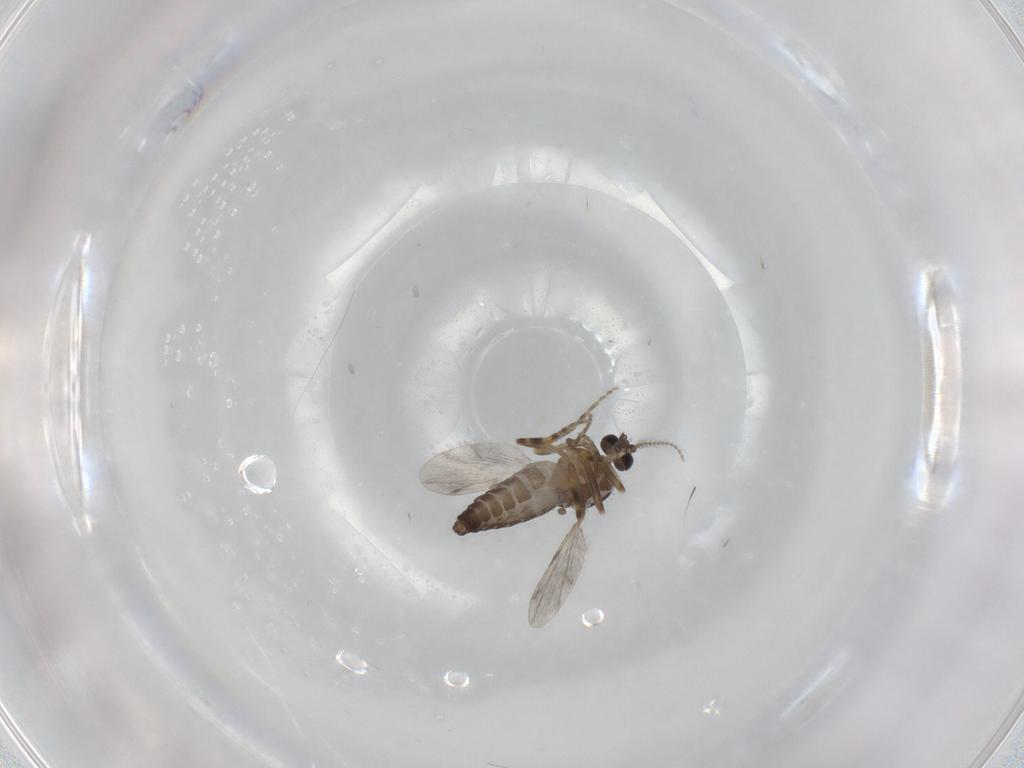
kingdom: Animalia
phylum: Arthropoda
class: Insecta
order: Diptera
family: Ceratopogonidae
